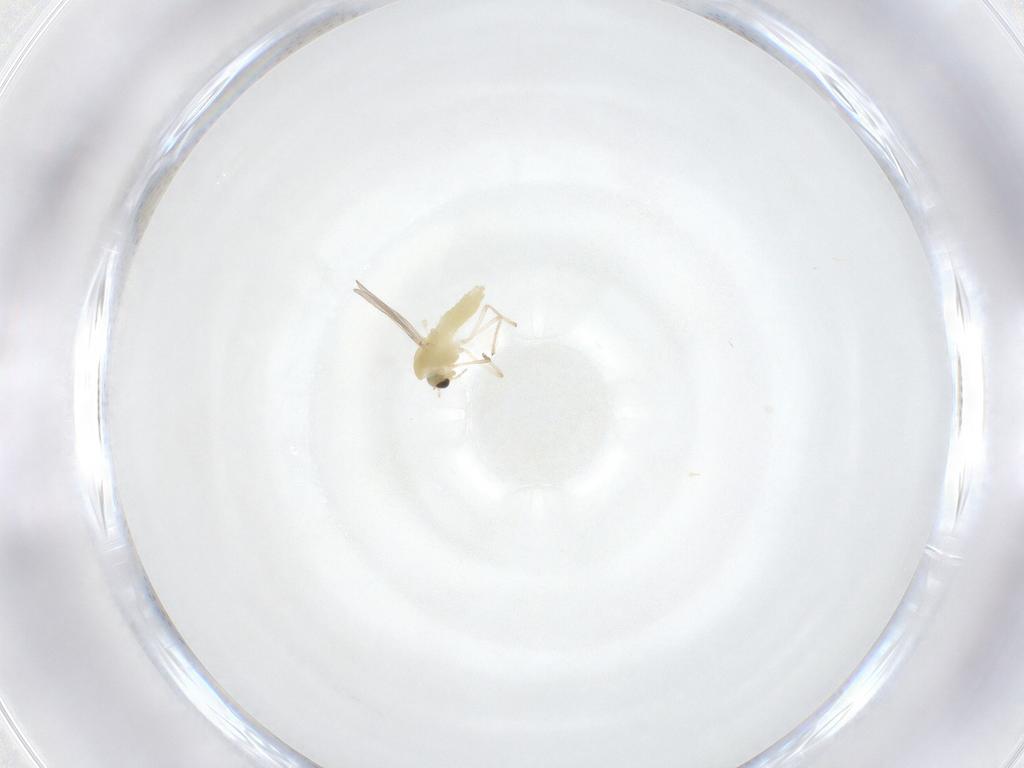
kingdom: Animalia
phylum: Arthropoda
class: Insecta
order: Diptera
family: Chironomidae
